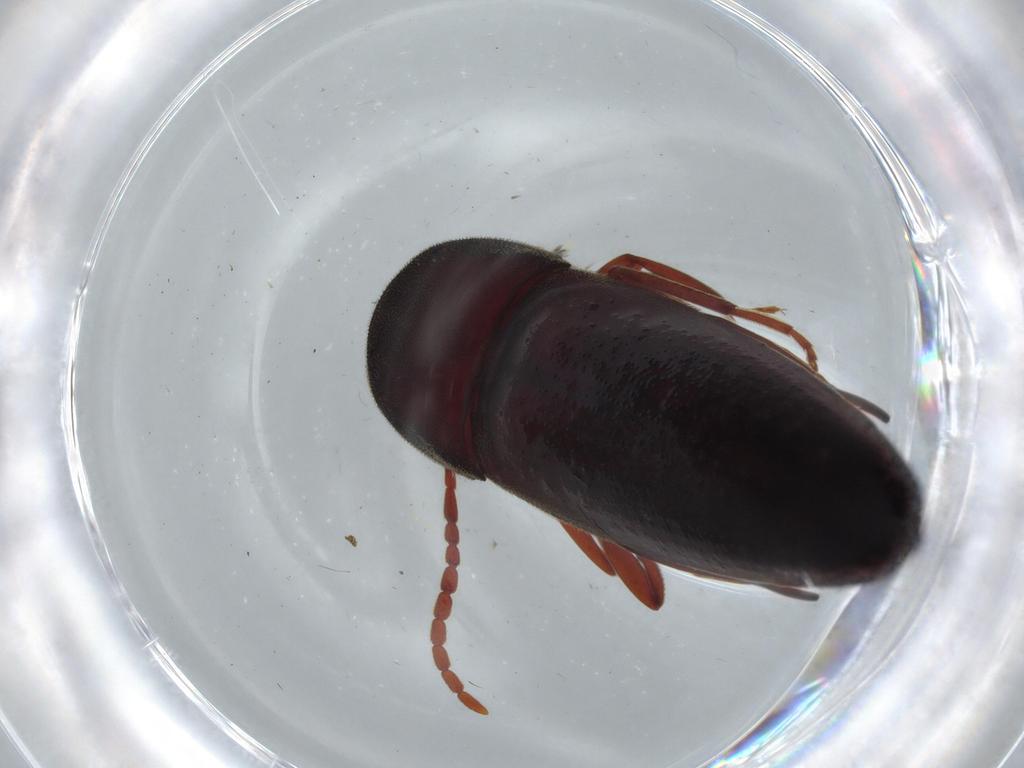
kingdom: Animalia
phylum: Arthropoda
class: Insecta
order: Coleoptera
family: Eucnemidae
